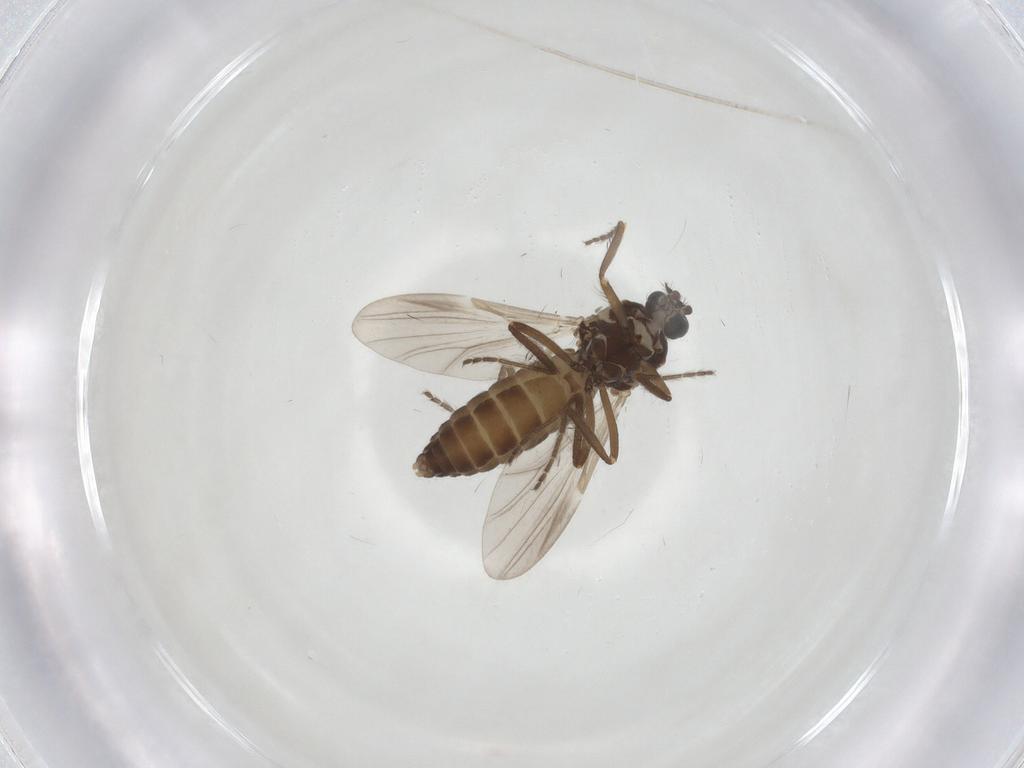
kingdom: Animalia
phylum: Arthropoda
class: Insecta
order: Diptera
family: Ceratopogonidae
